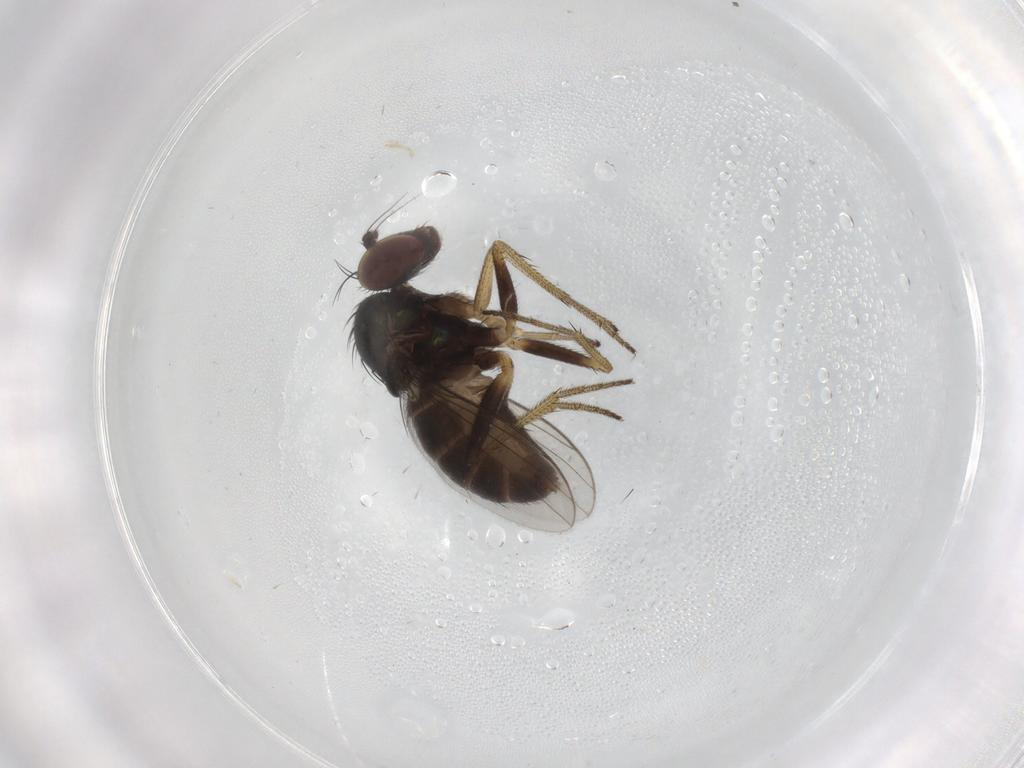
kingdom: Animalia
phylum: Arthropoda
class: Insecta
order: Diptera
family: Dolichopodidae
